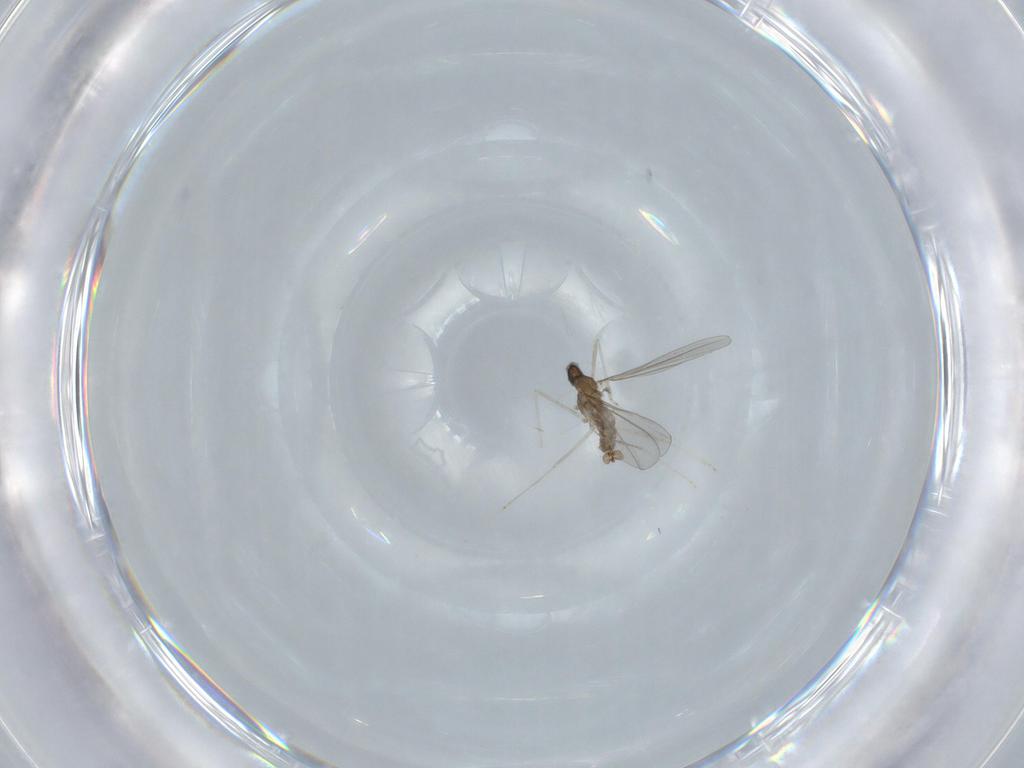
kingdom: Animalia
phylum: Arthropoda
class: Insecta
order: Diptera
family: Cecidomyiidae
